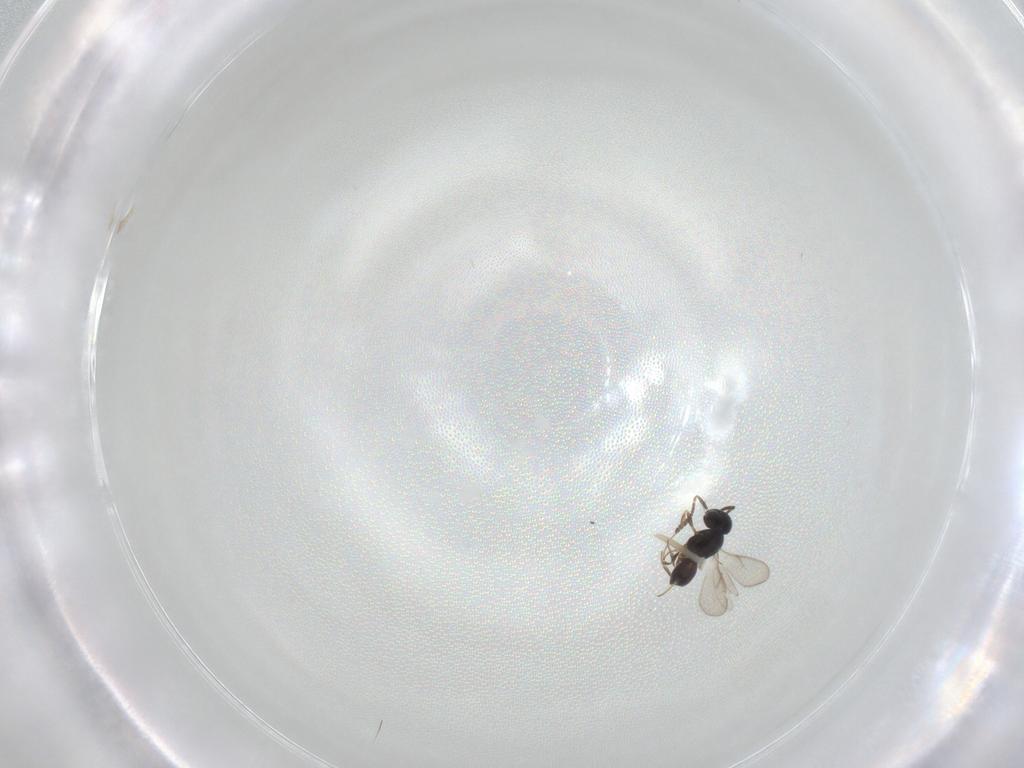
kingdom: Animalia
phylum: Arthropoda
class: Insecta
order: Hymenoptera
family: Scelionidae
